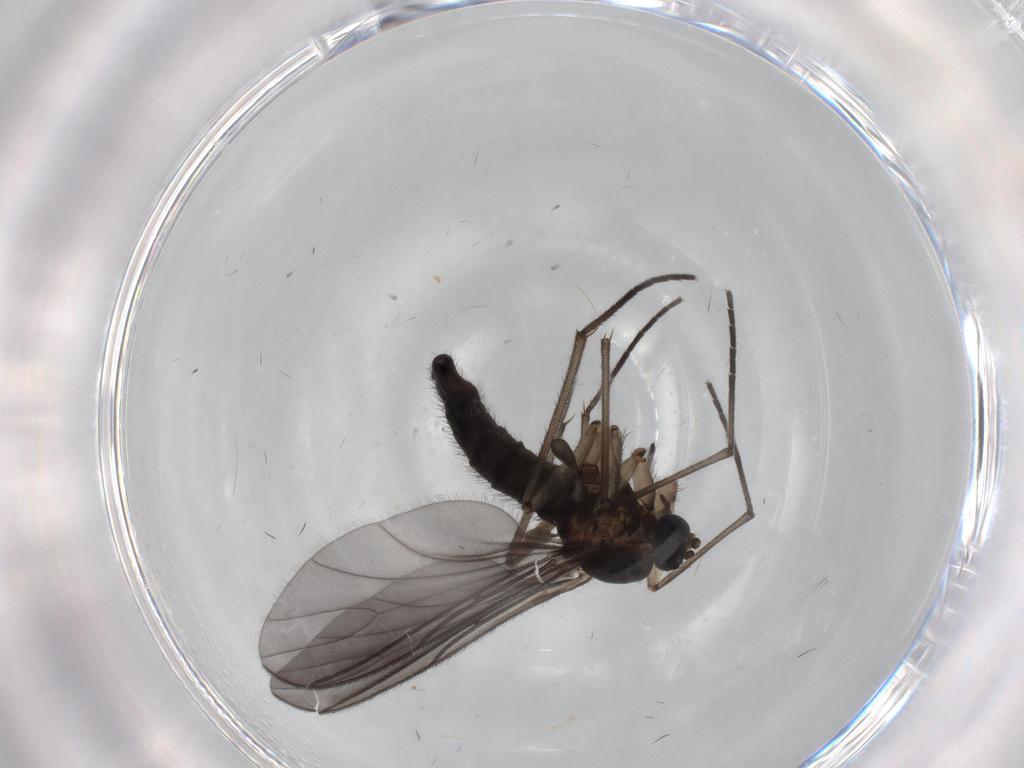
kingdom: Animalia
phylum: Arthropoda
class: Insecta
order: Diptera
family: Sciaridae
